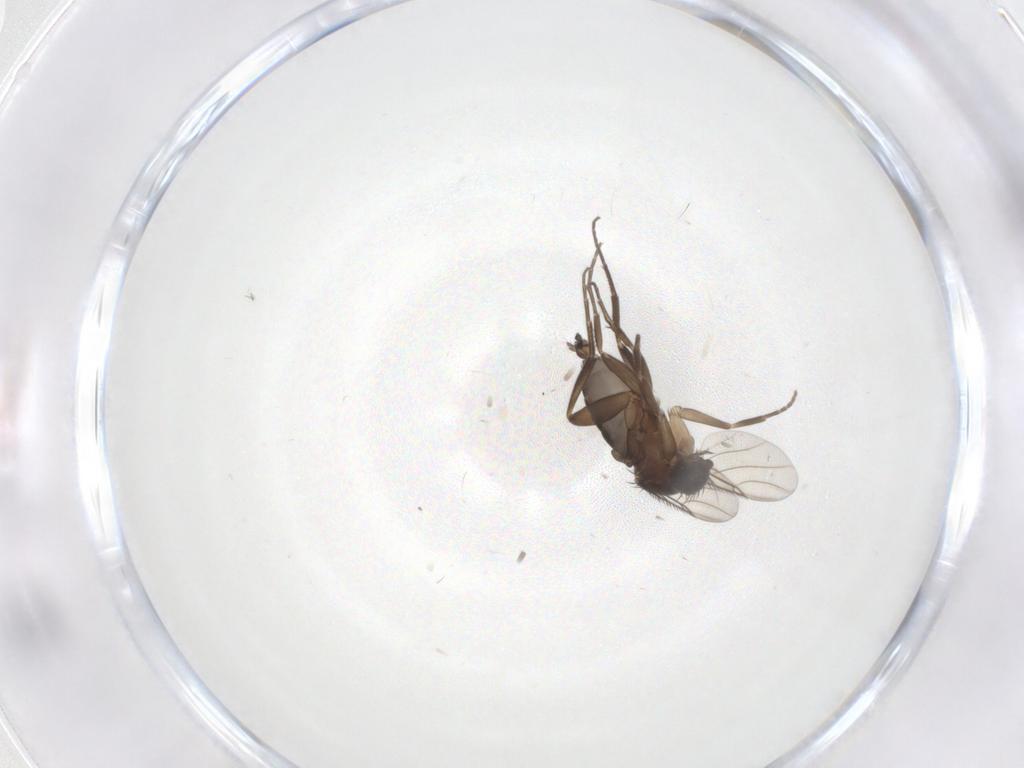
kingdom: Animalia
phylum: Arthropoda
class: Insecta
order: Diptera
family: Phoridae
